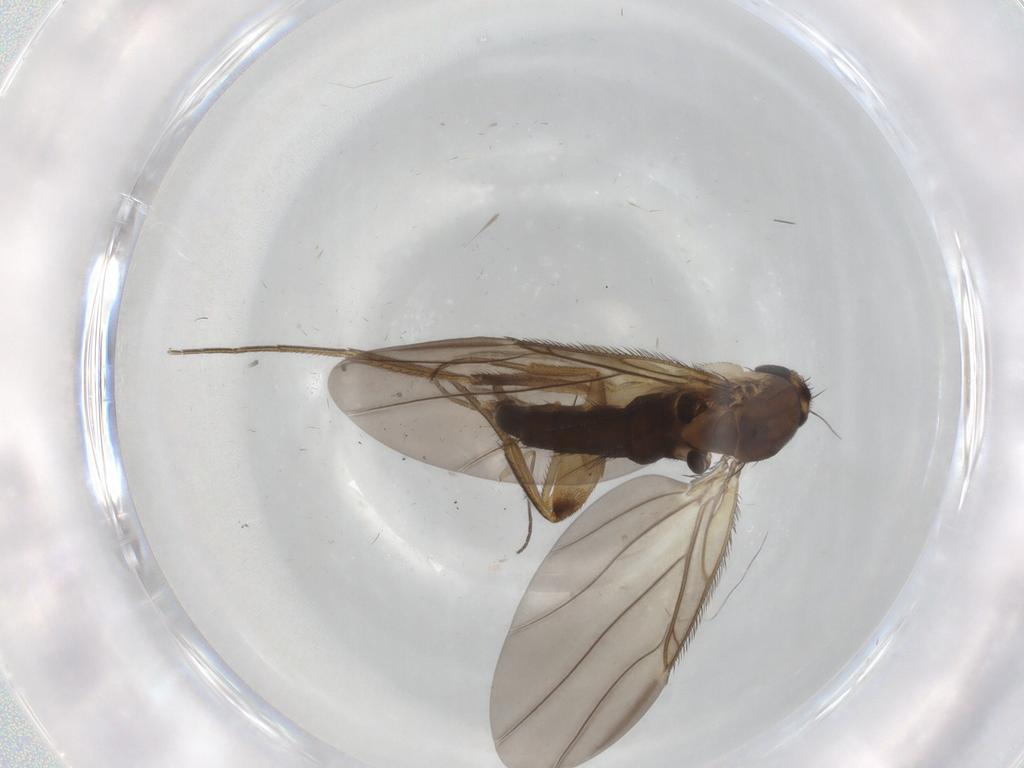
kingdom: Animalia
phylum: Arthropoda
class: Insecta
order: Diptera
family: Phoridae
